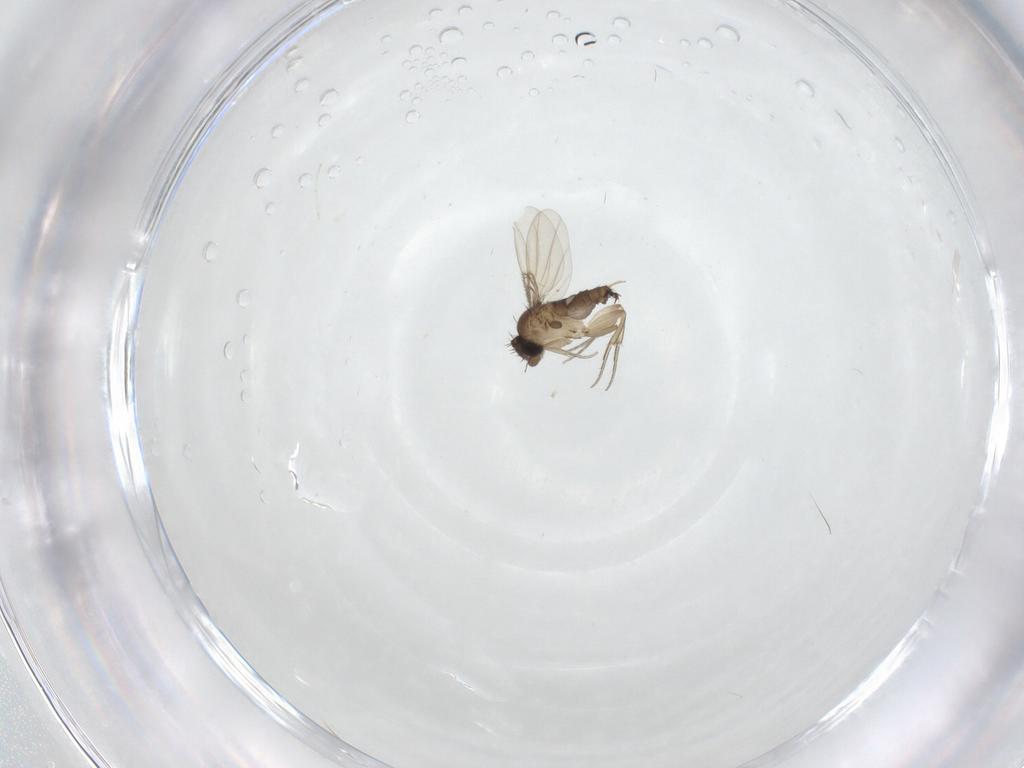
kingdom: Animalia
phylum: Arthropoda
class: Insecta
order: Diptera
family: Phoridae
